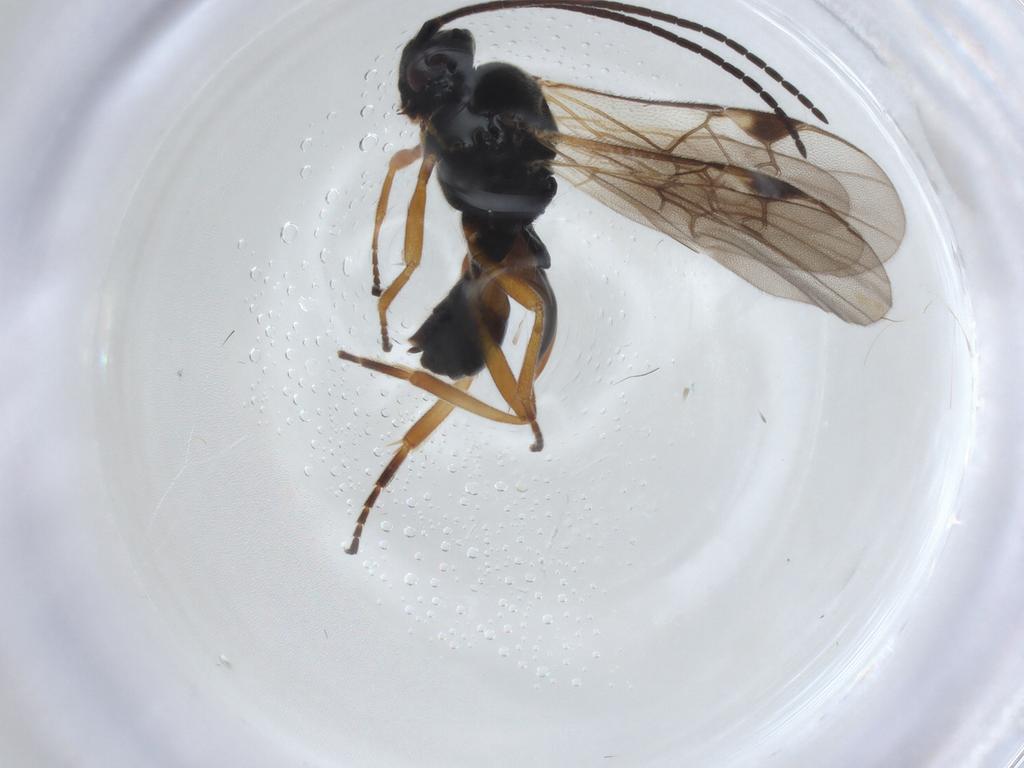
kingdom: Animalia
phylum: Arthropoda
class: Insecta
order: Hymenoptera
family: Braconidae
